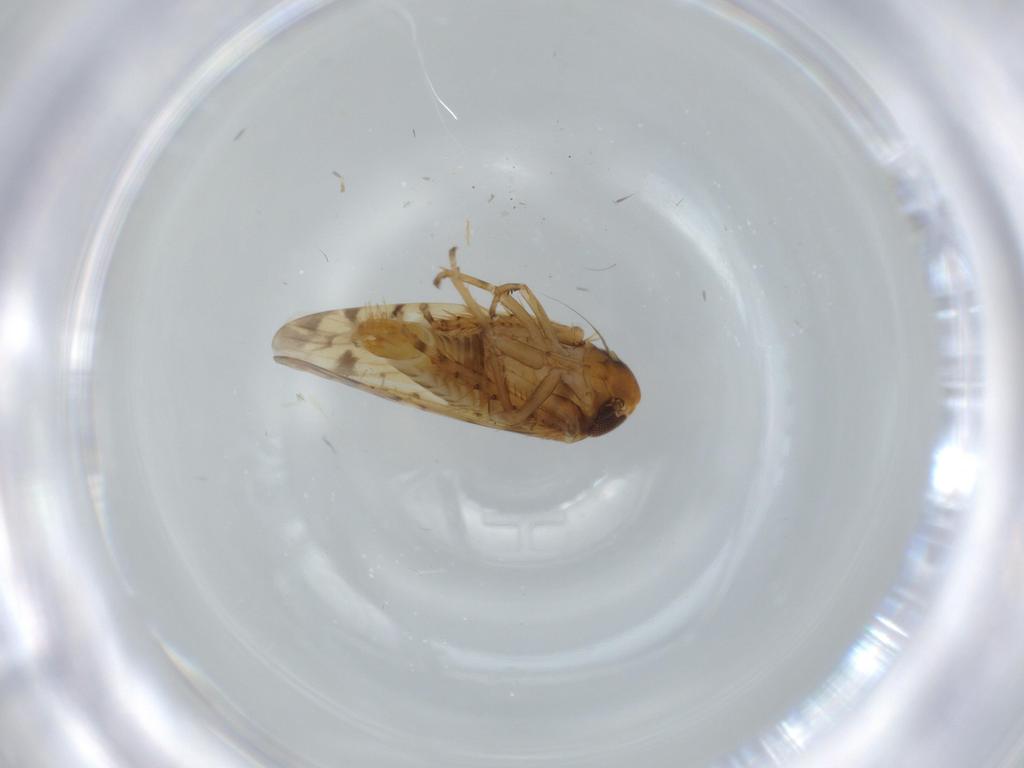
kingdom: Animalia
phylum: Arthropoda
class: Insecta
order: Hemiptera
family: Cicadellidae
